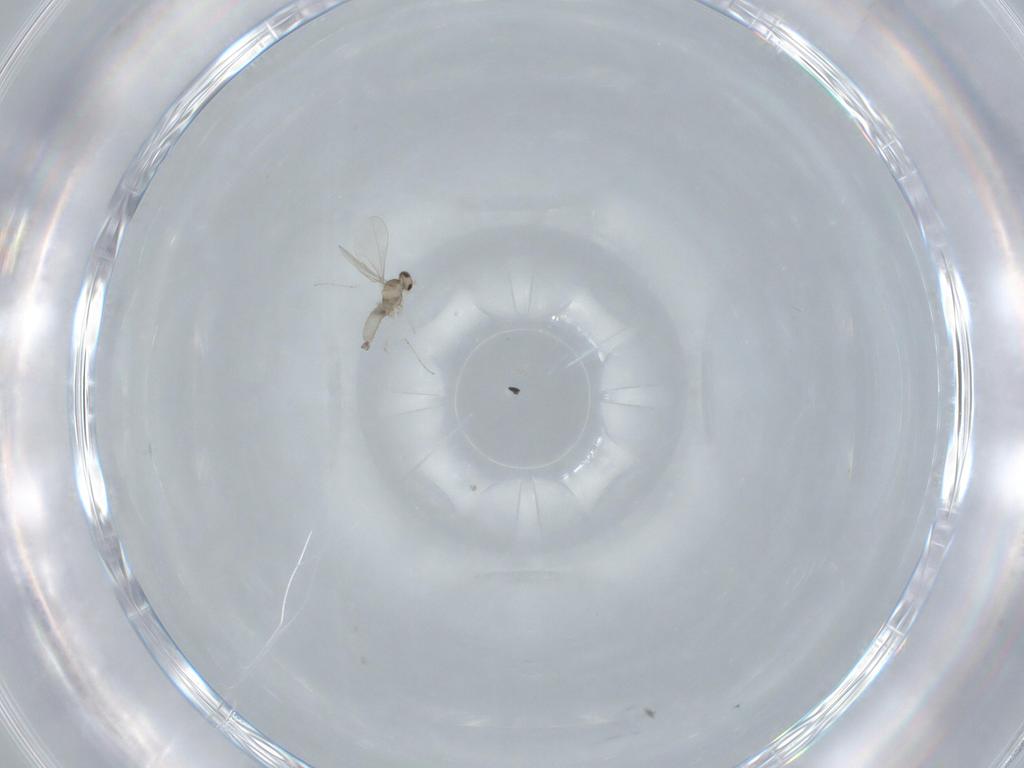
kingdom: Animalia
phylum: Arthropoda
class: Insecta
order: Diptera
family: Cecidomyiidae
